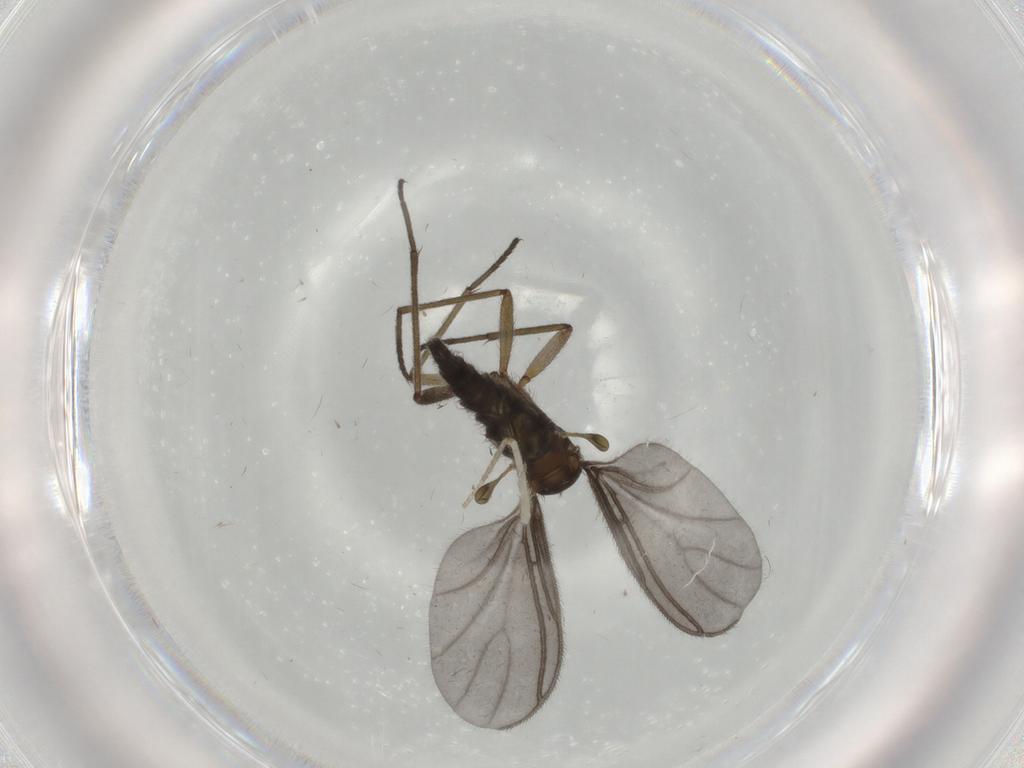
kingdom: Animalia
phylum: Arthropoda
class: Insecta
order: Diptera
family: Sciaridae
